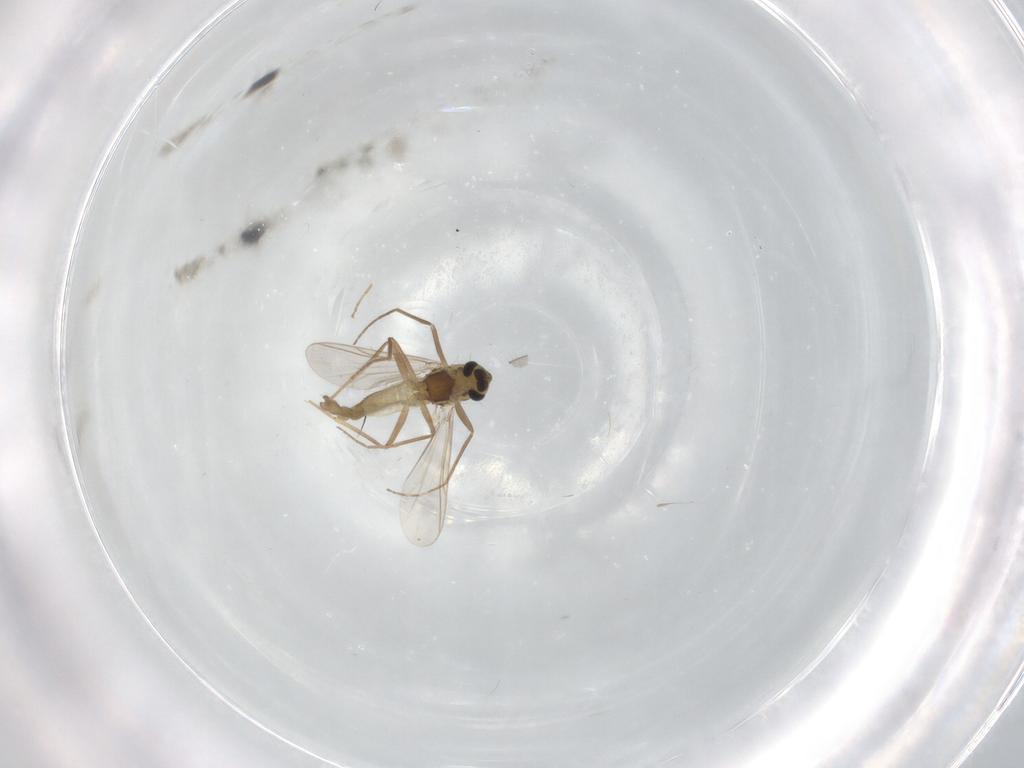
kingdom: Animalia
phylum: Arthropoda
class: Insecta
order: Diptera
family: Chironomidae
